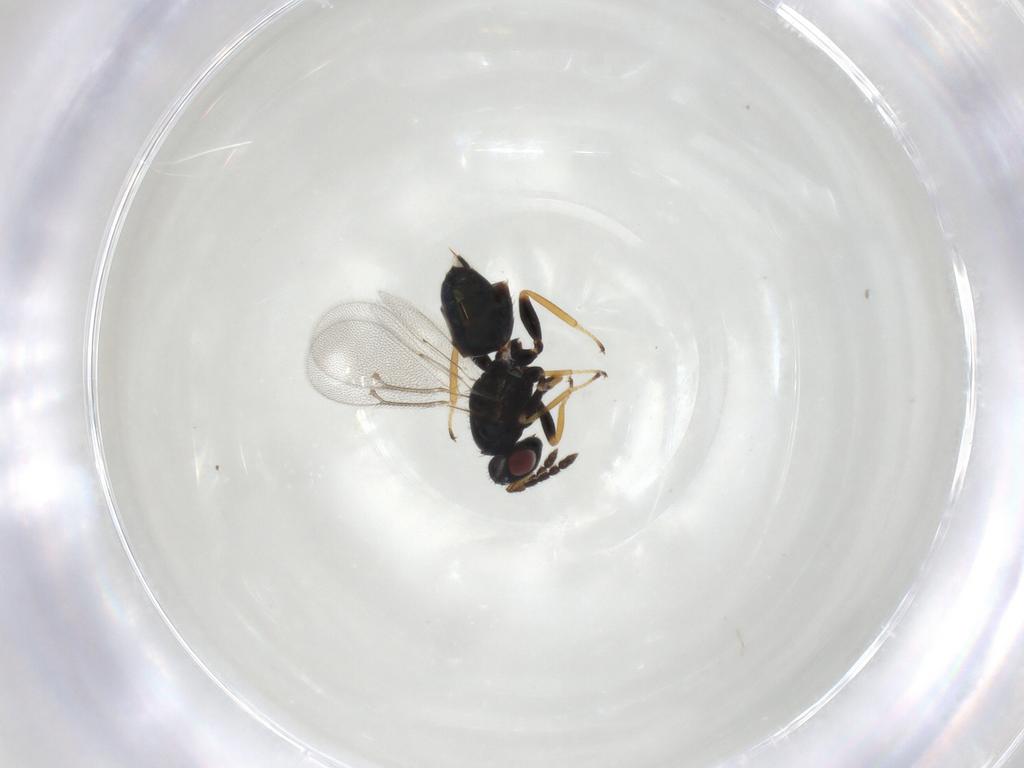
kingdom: Animalia
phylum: Arthropoda
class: Insecta
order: Hymenoptera
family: Eulophidae
